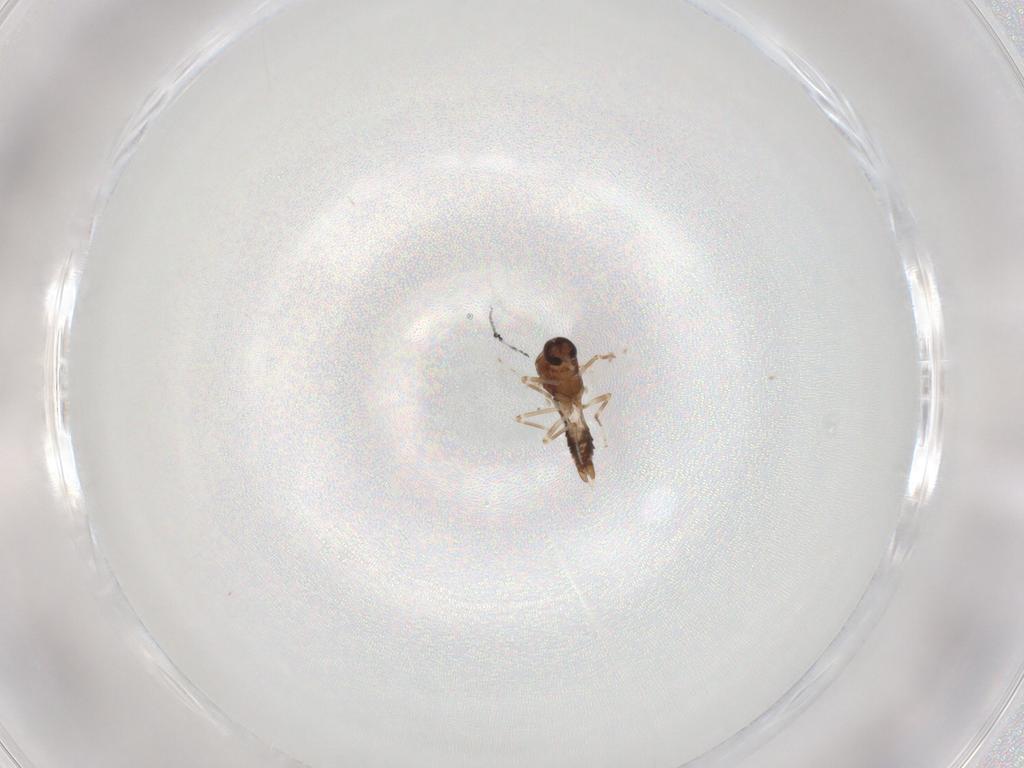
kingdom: Animalia
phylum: Arthropoda
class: Insecta
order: Diptera
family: Ceratopogonidae
